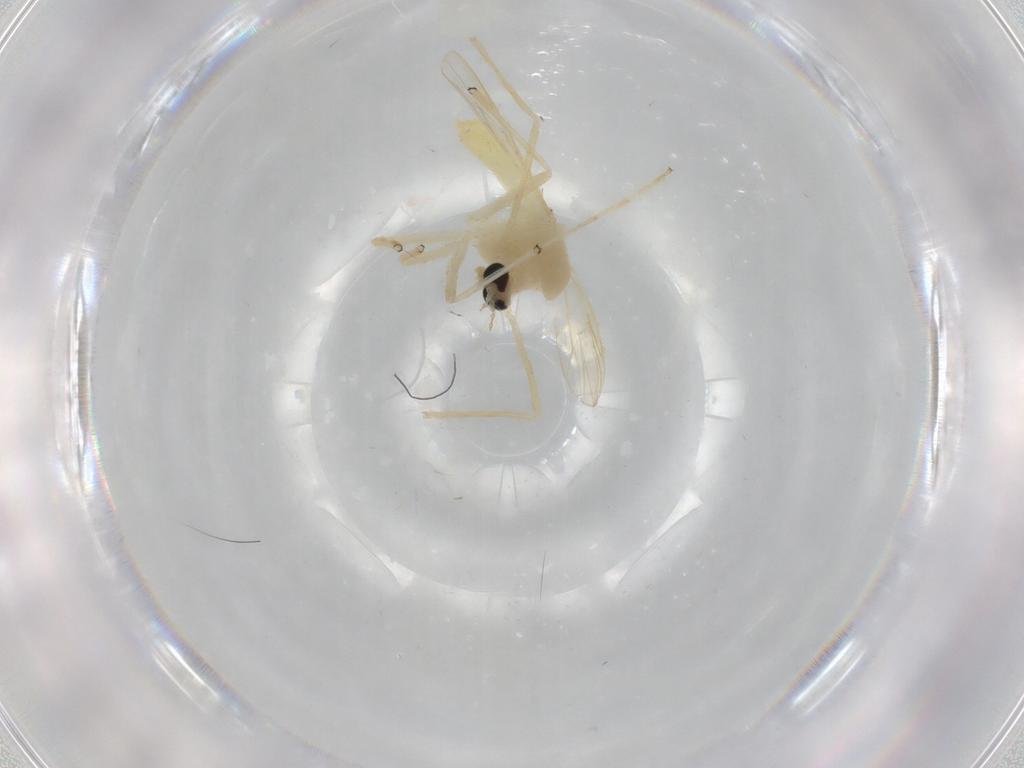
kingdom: Animalia
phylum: Arthropoda
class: Insecta
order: Diptera
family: Chironomidae
